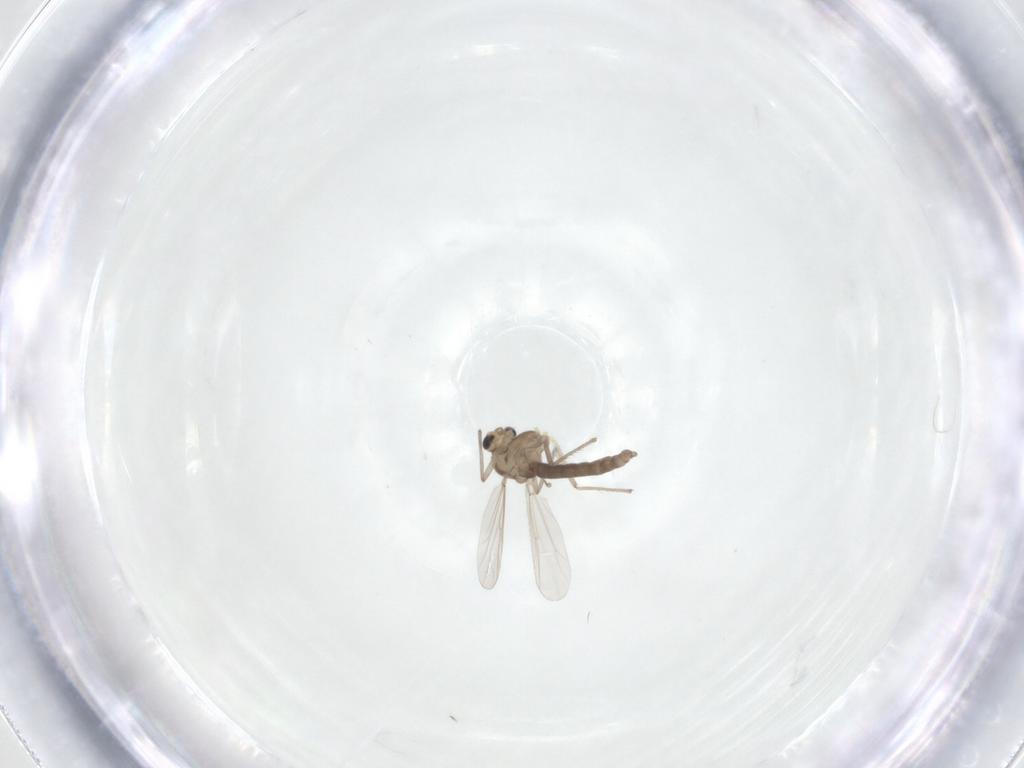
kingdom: Animalia
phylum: Arthropoda
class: Insecta
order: Diptera
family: Chironomidae
